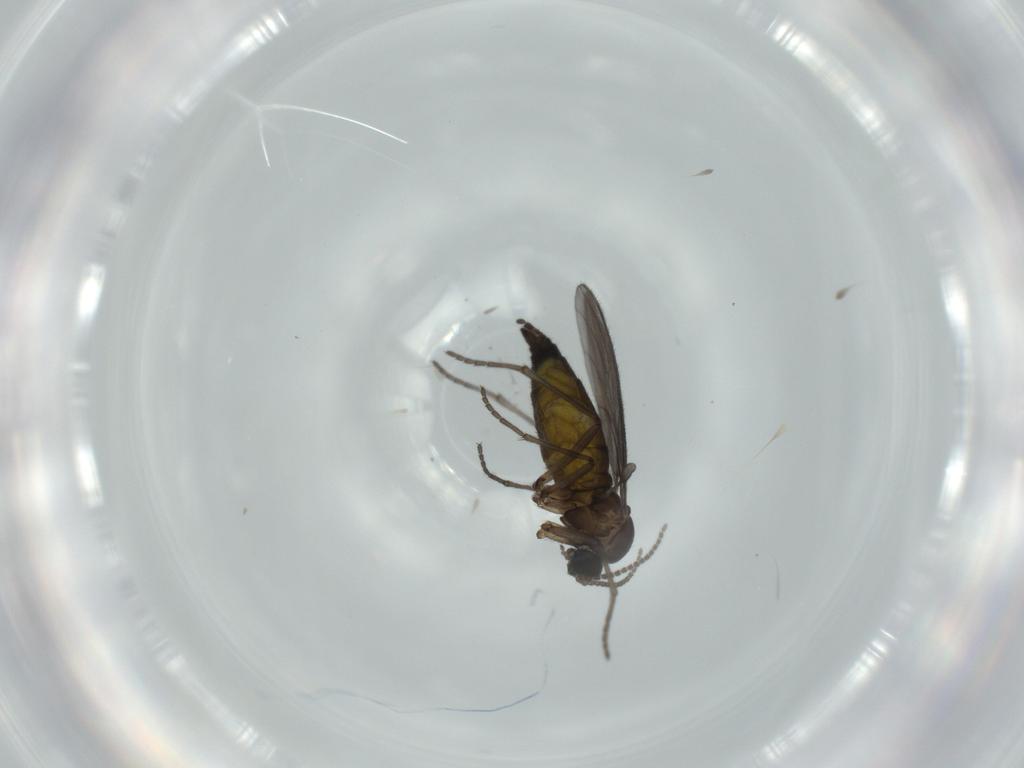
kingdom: Animalia
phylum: Arthropoda
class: Insecta
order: Diptera
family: Sciaridae
